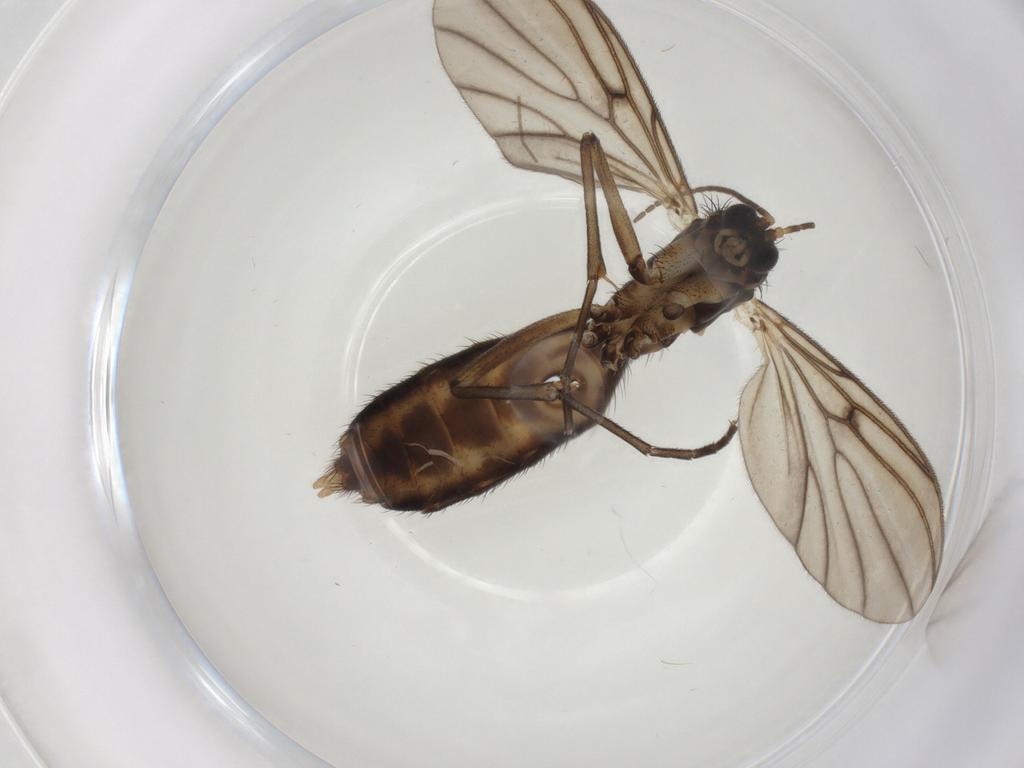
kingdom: Animalia
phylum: Arthropoda
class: Insecta
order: Diptera
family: Mycetophilidae
